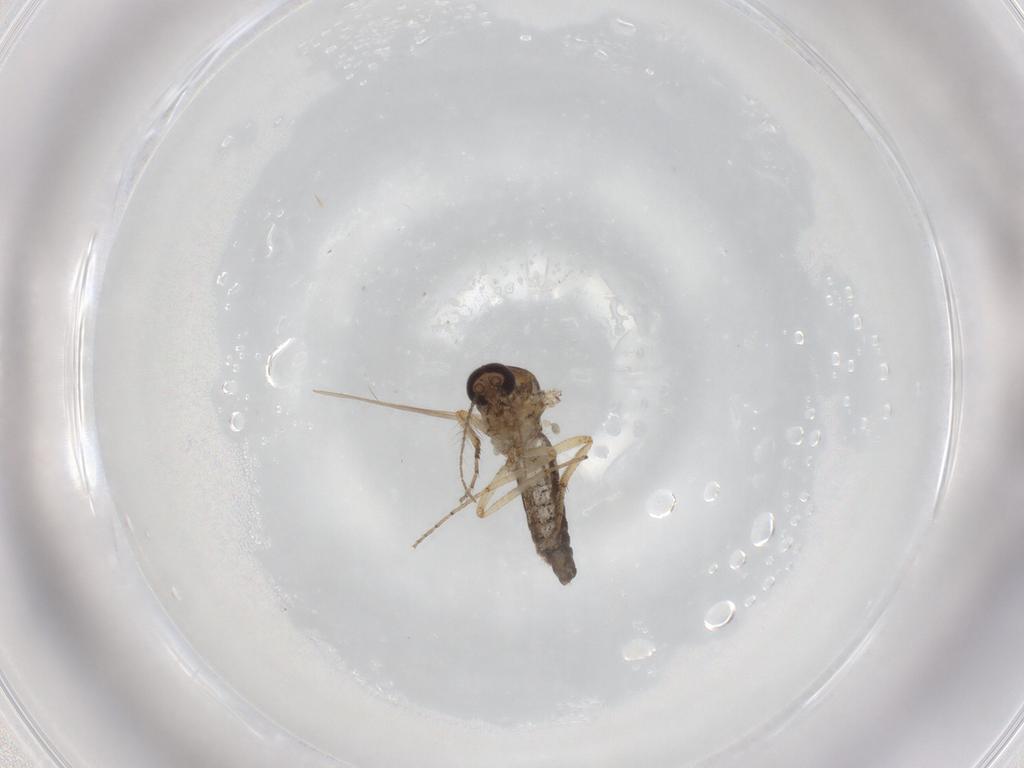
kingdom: Animalia
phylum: Arthropoda
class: Insecta
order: Diptera
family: Ceratopogonidae
